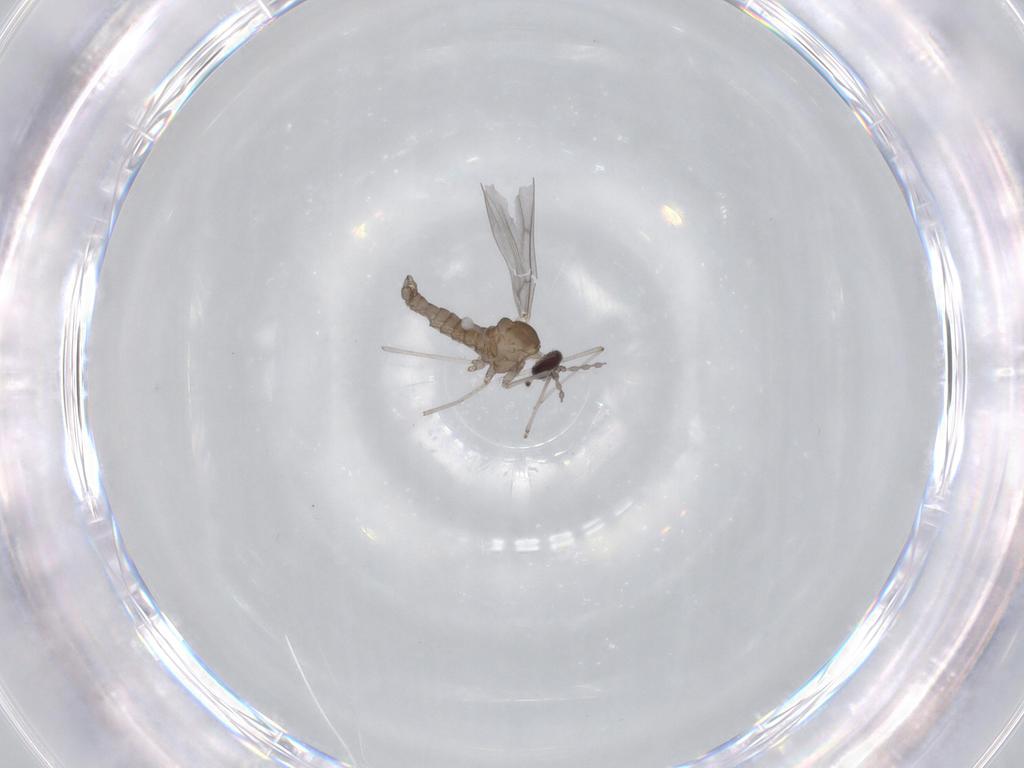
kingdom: Animalia
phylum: Arthropoda
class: Insecta
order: Diptera
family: Cecidomyiidae
